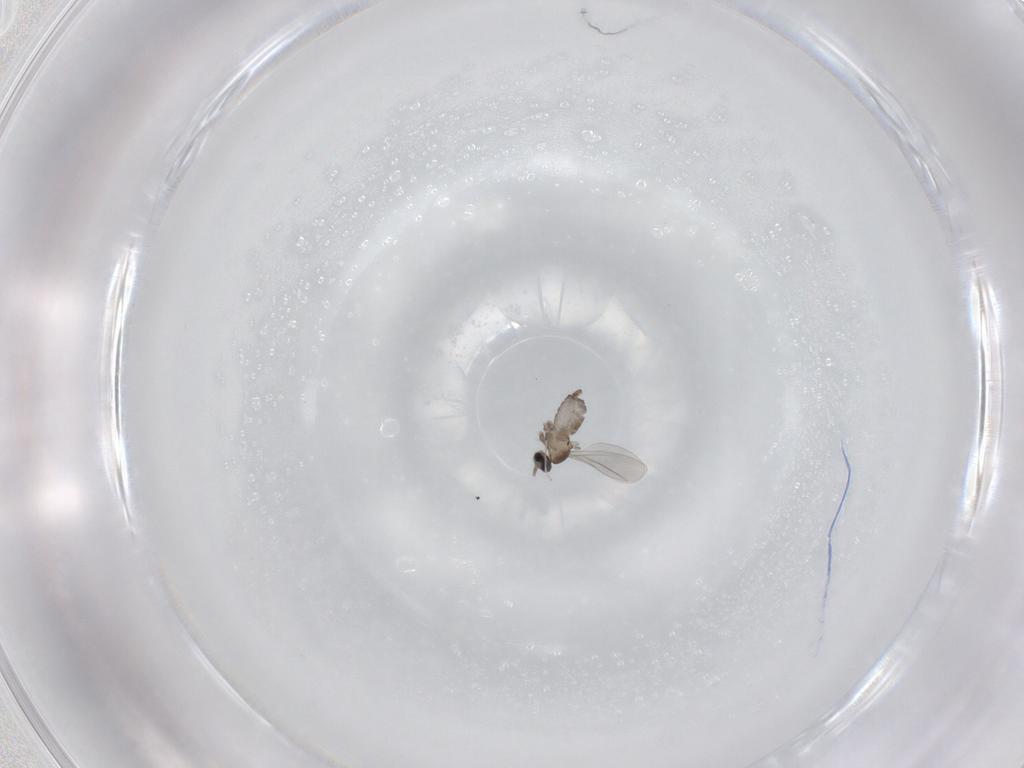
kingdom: Animalia
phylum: Arthropoda
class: Insecta
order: Diptera
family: Cecidomyiidae
